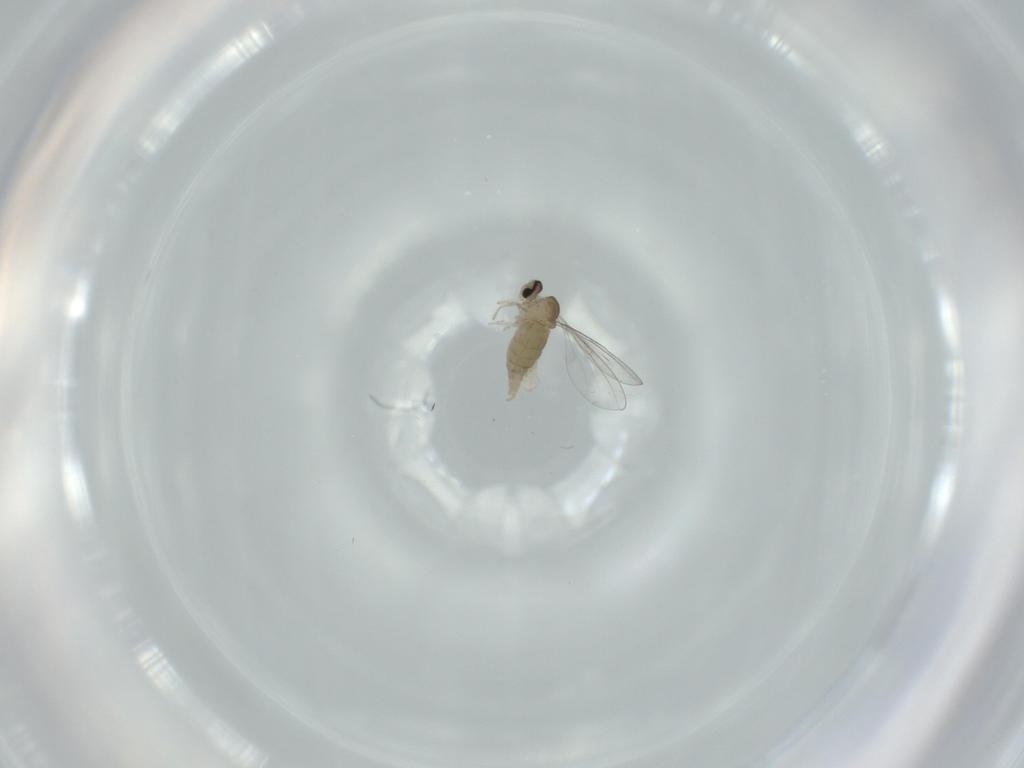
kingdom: Animalia
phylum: Arthropoda
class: Insecta
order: Diptera
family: Cecidomyiidae
